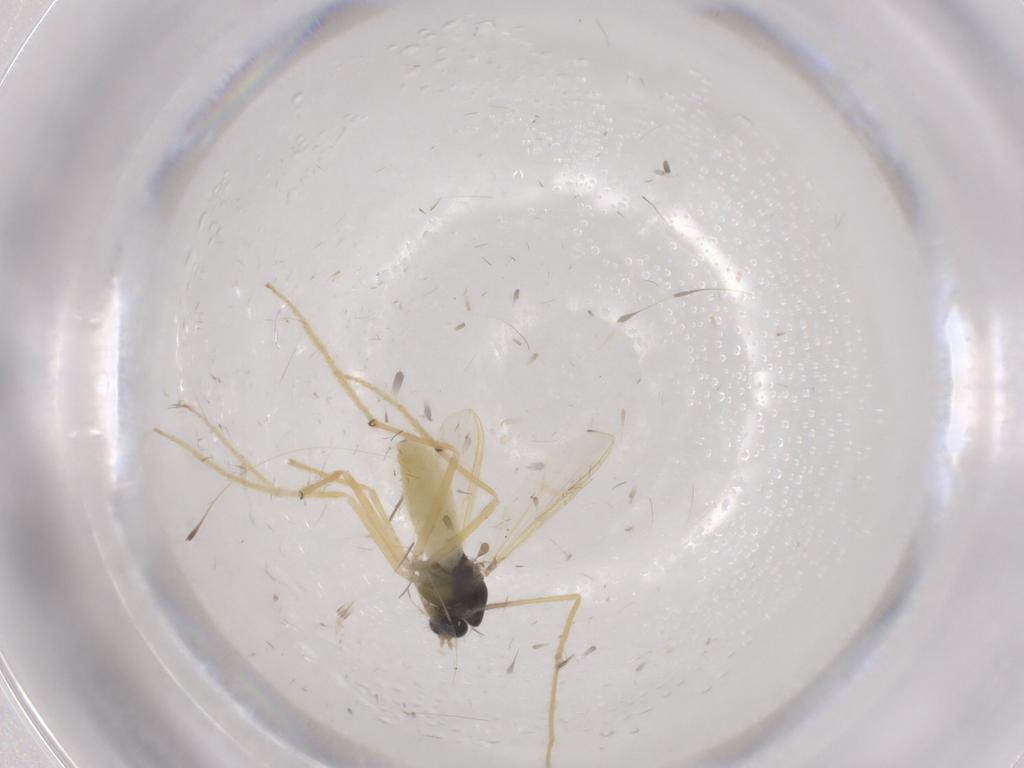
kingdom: Animalia
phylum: Arthropoda
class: Insecta
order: Diptera
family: Chironomidae
